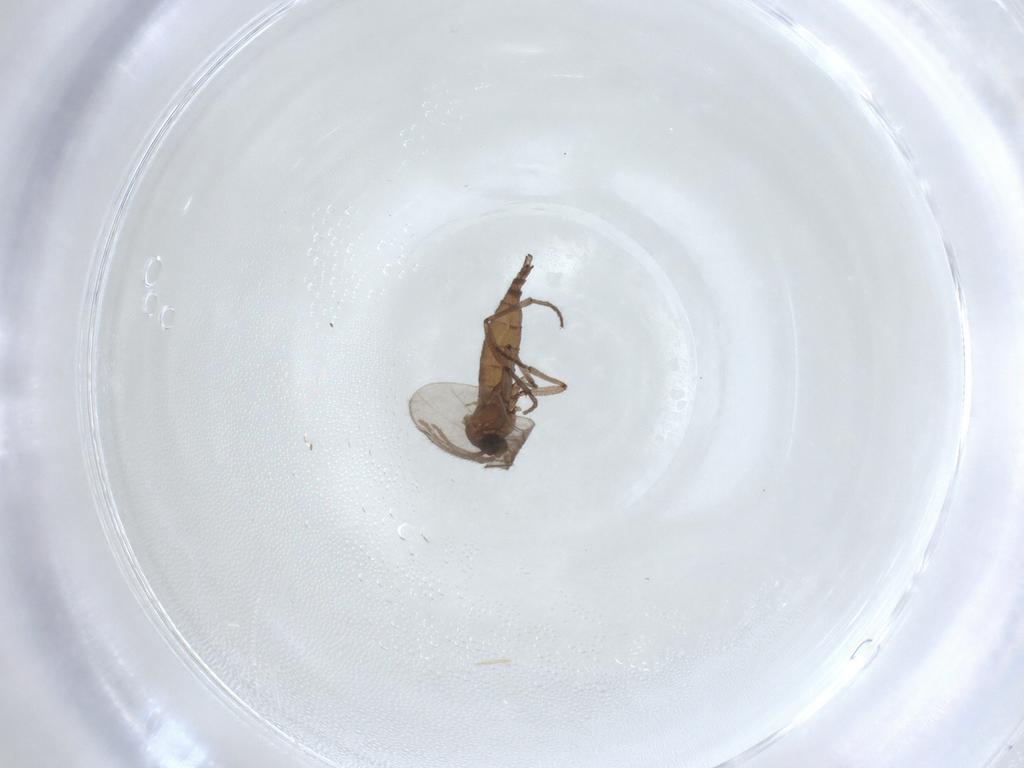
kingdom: Animalia
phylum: Arthropoda
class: Insecta
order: Diptera
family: Sciaridae
